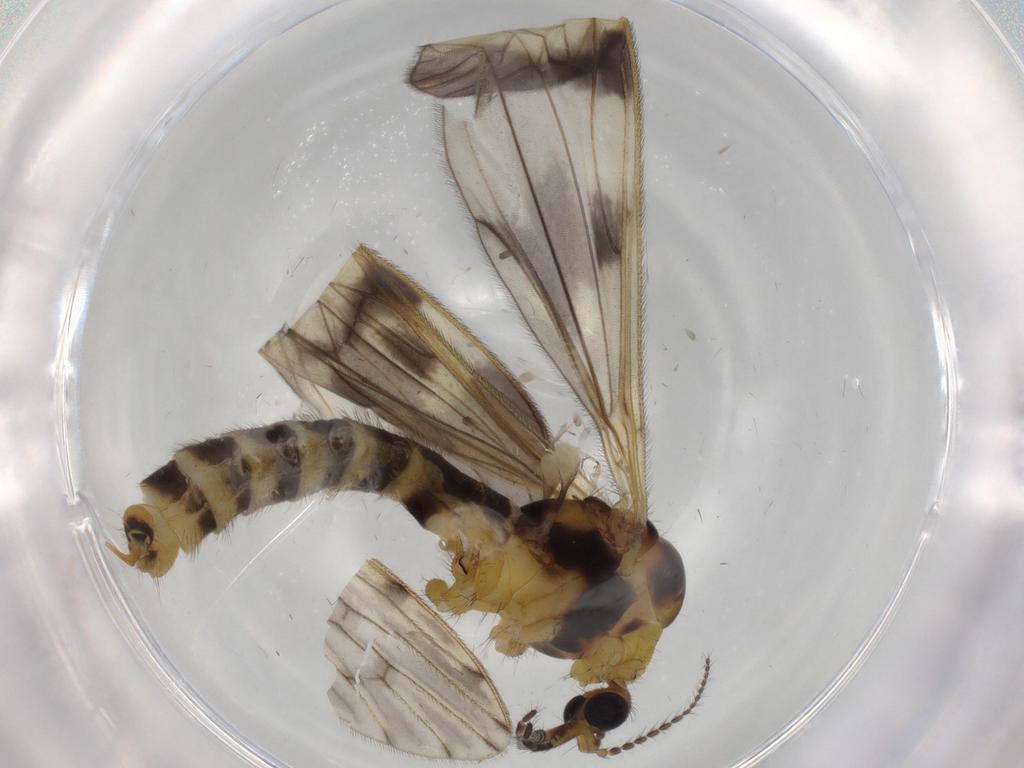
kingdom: Animalia
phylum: Arthropoda
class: Insecta
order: Diptera
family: Limoniidae
